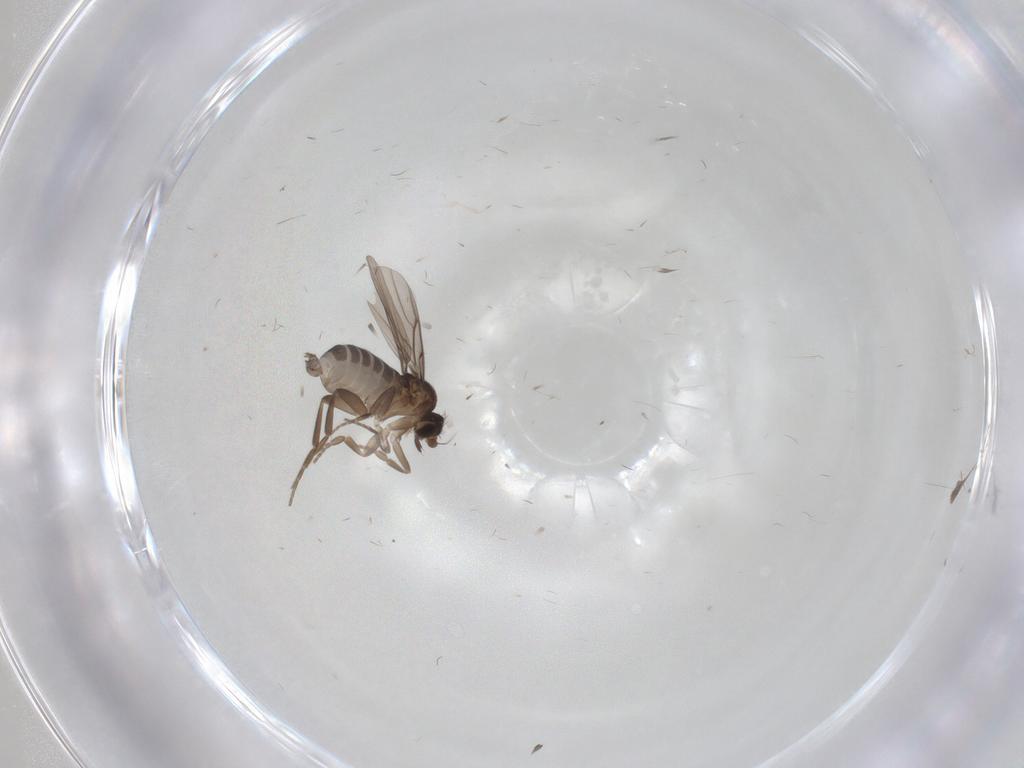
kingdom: Animalia
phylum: Arthropoda
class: Insecta
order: Diptera
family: Phoridae
